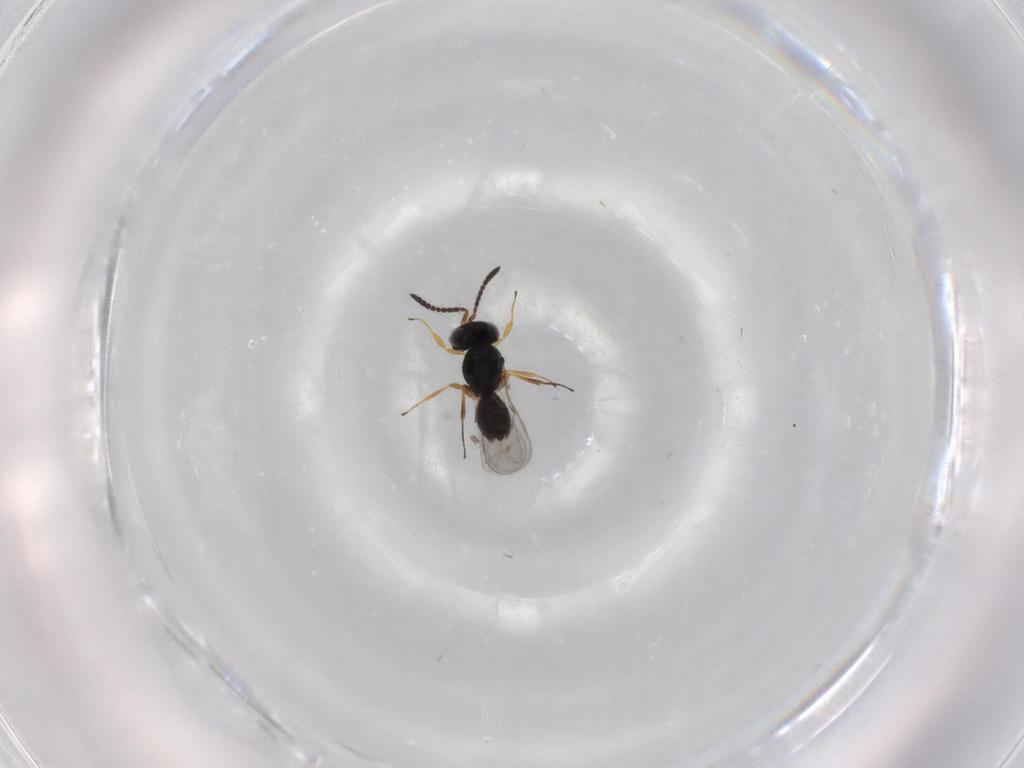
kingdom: Animalia
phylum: Arthropoda
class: Insecta
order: Hymenoptera
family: Scelionidae
